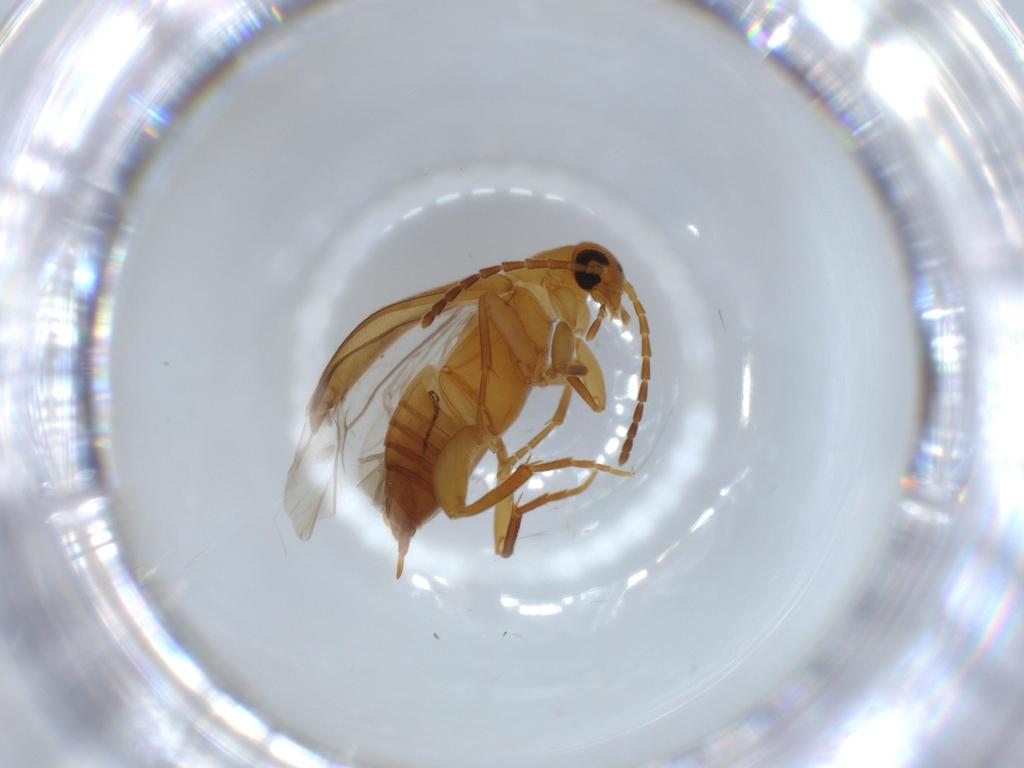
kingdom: Animalia
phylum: Arthropoda
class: Insecta
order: Coleoptera
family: Scraptiidae
